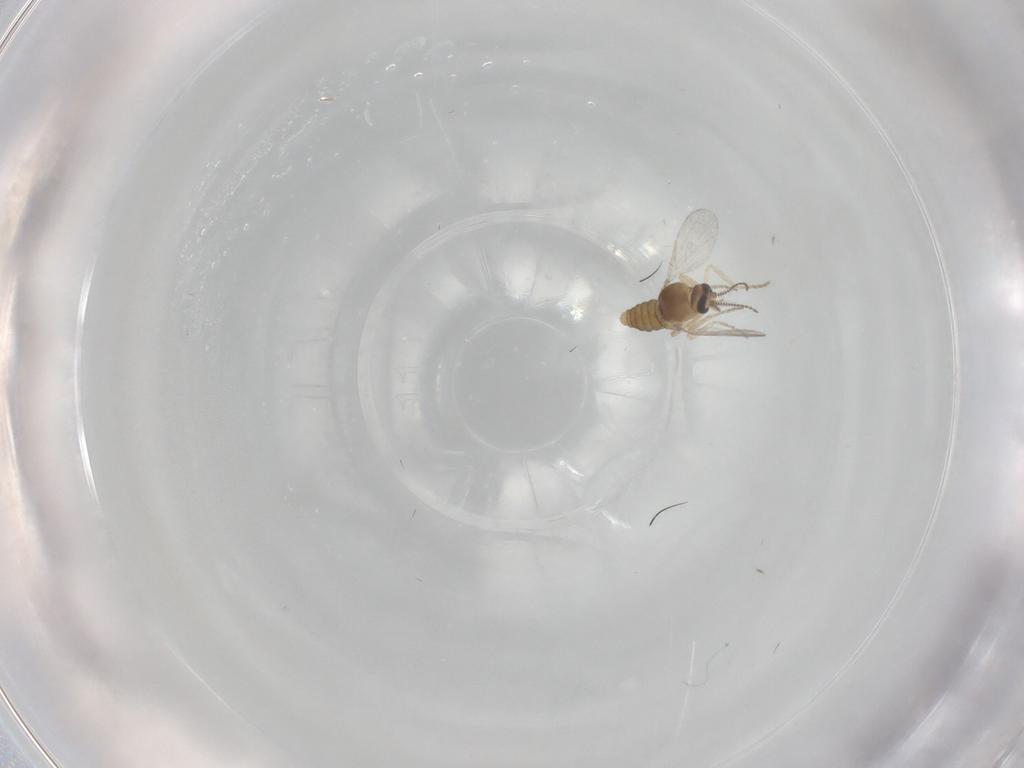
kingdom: Animalia
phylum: Arthropoda
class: Insecta
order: Diptera
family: Dolichopodidae
